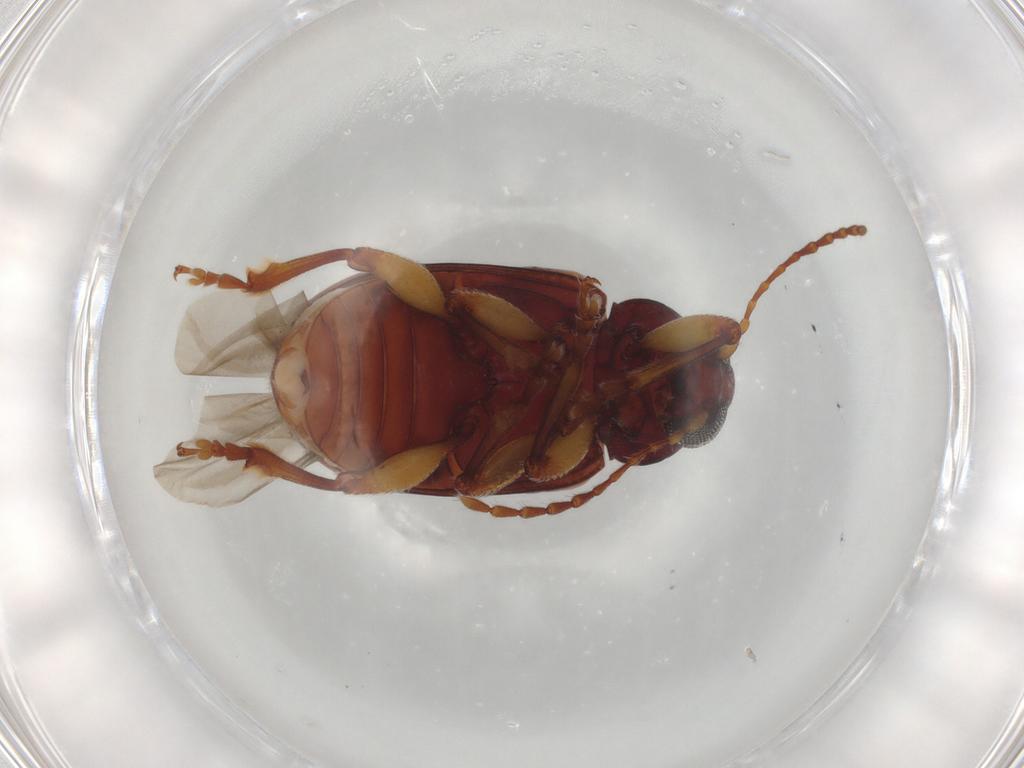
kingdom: Animalia
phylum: Arthropoda
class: Insecta
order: Coleoptera
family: Chrysomelidae
